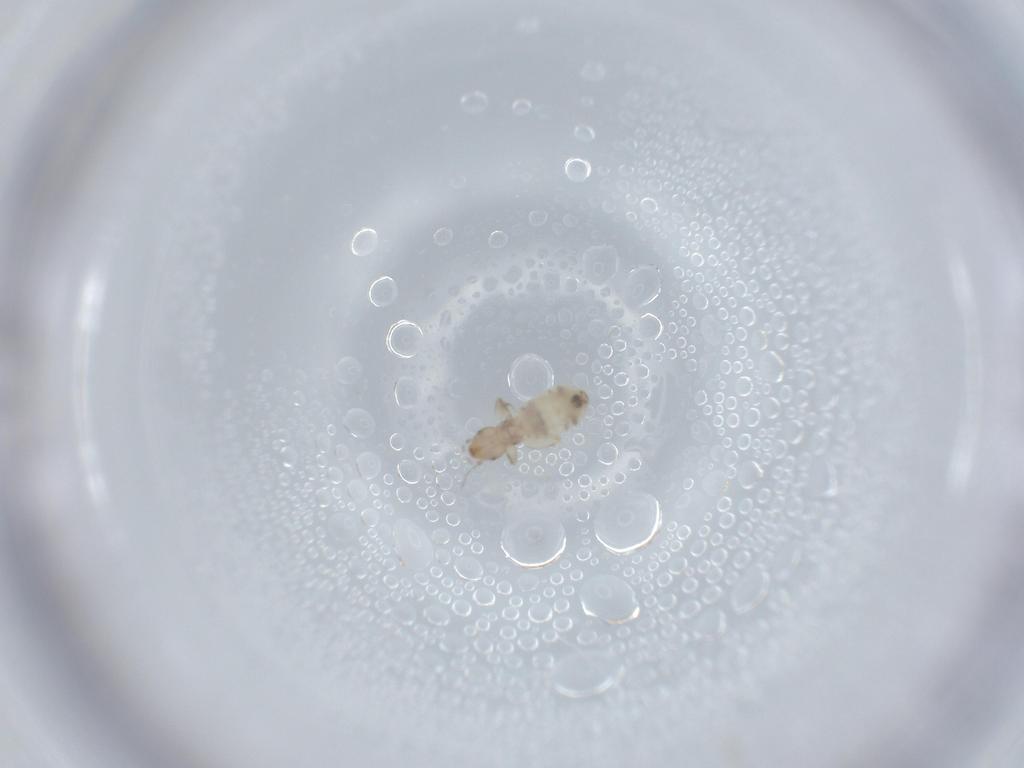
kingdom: Animalia
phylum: Arthropoda
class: Insecta
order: Psocodea
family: Liposcelididae
